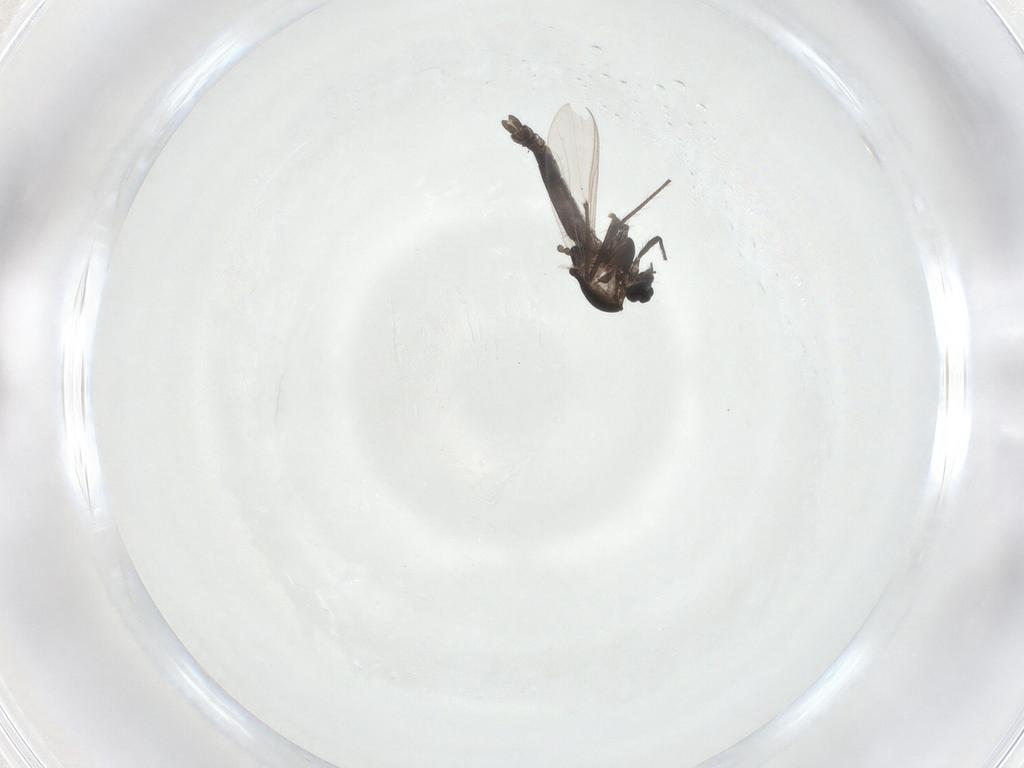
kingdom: Animalia
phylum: Arthropoda
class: Insecta
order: Diptera
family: Chironomidae
